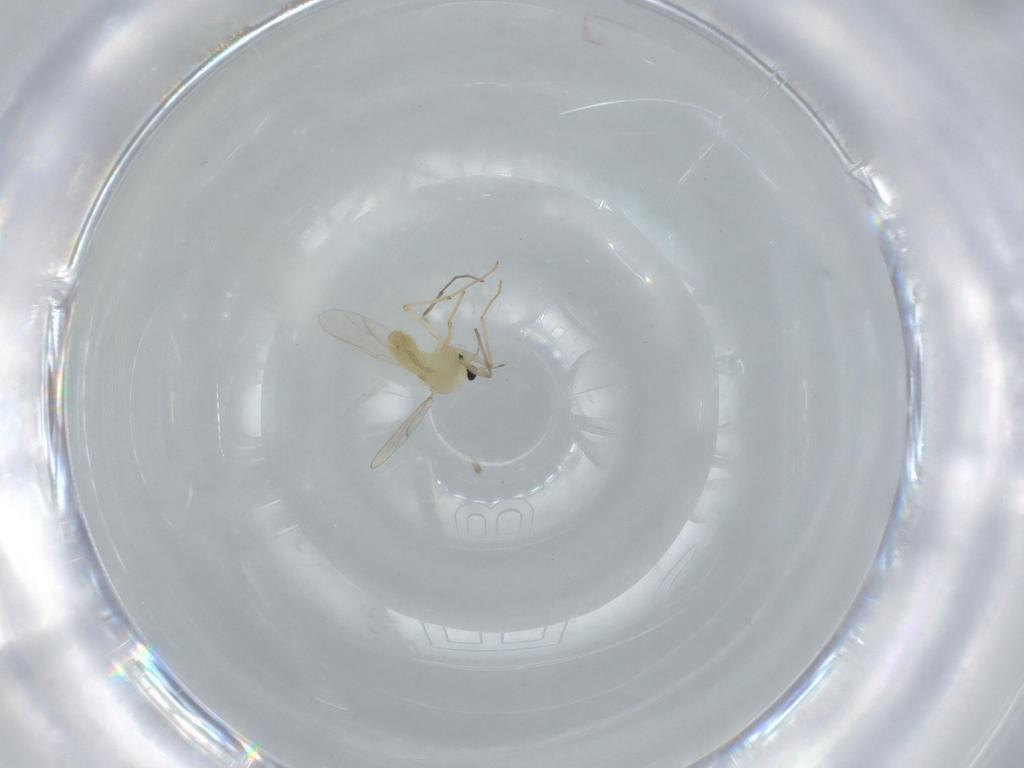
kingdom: Animalia
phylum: Arthropoda
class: Insecta
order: Diptera
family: Chironomidae
